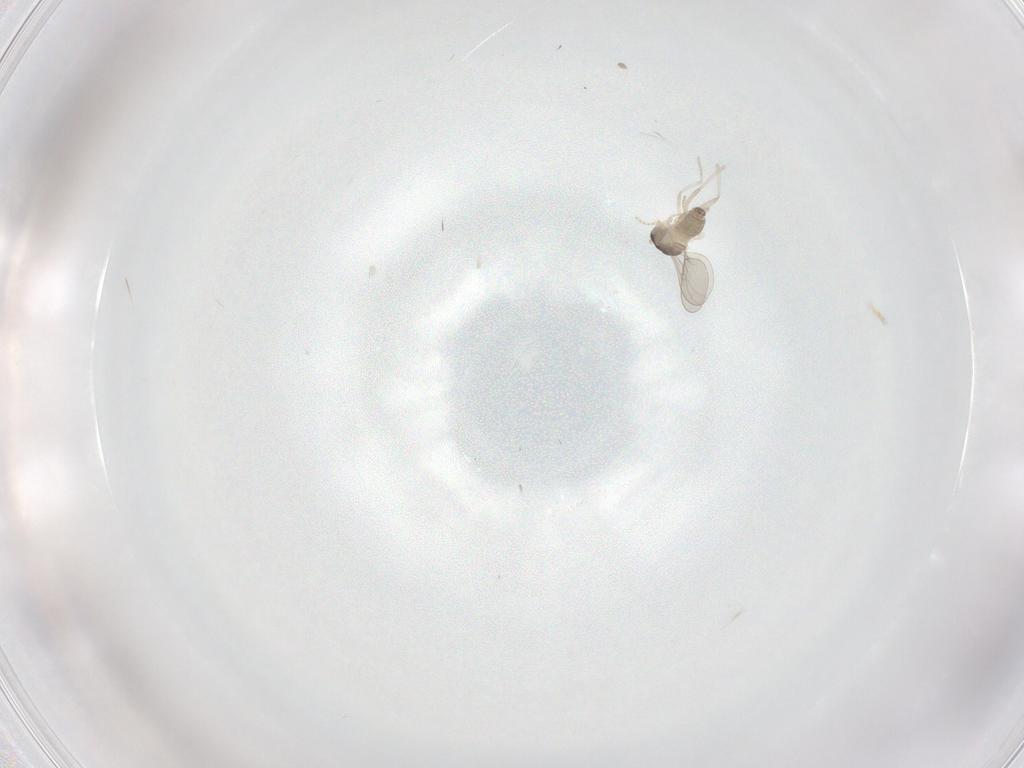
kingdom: Animalia
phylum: Arthropoda
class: Insecta
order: Diptera
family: Cecidomyiidae
